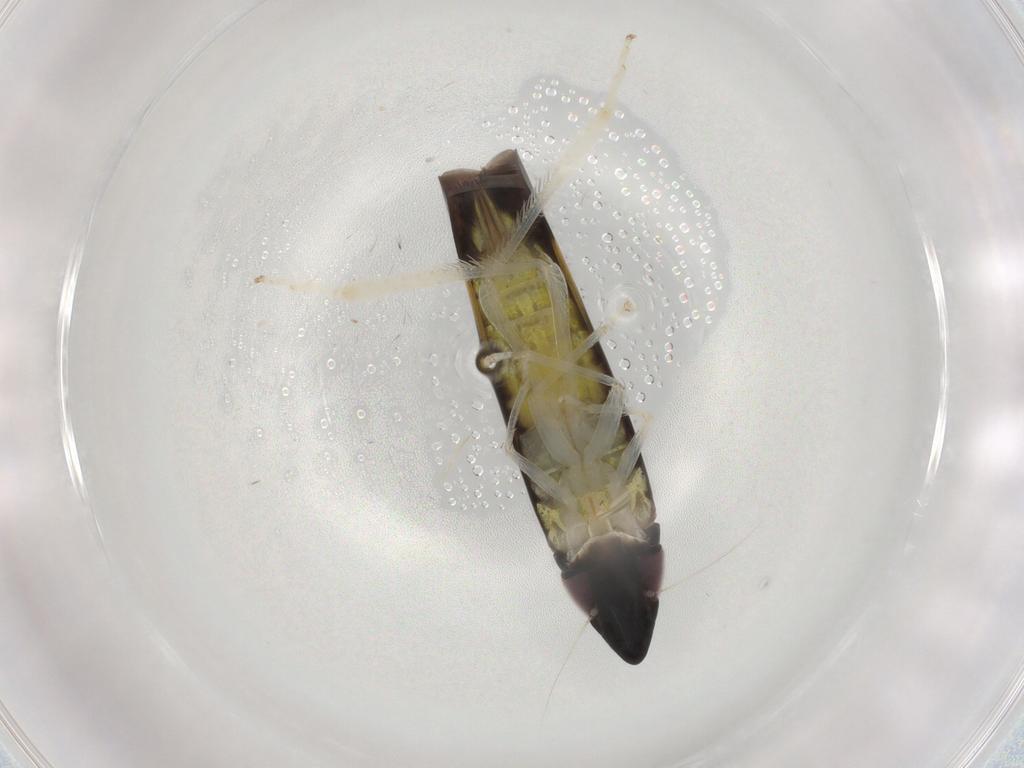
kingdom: Animalia
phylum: Arthropoda
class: Insecta
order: Hemiptera
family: Cicadellidae
